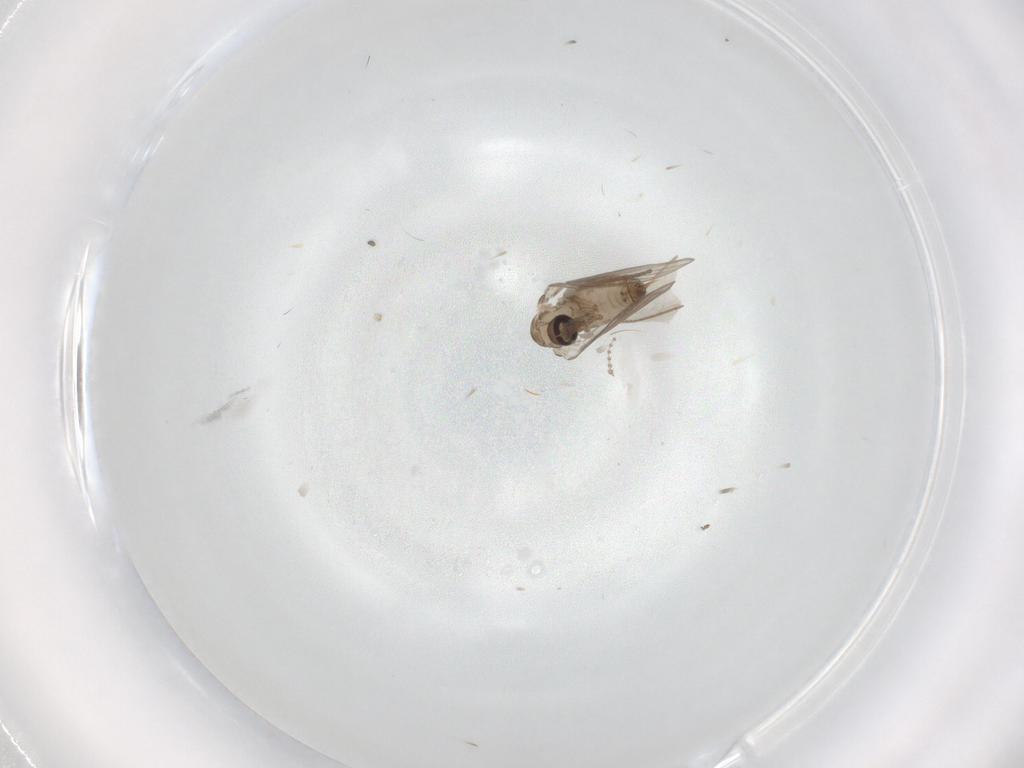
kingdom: Animalia
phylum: Arthropoda
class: Insecta
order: Diptera
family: Psychodidae
